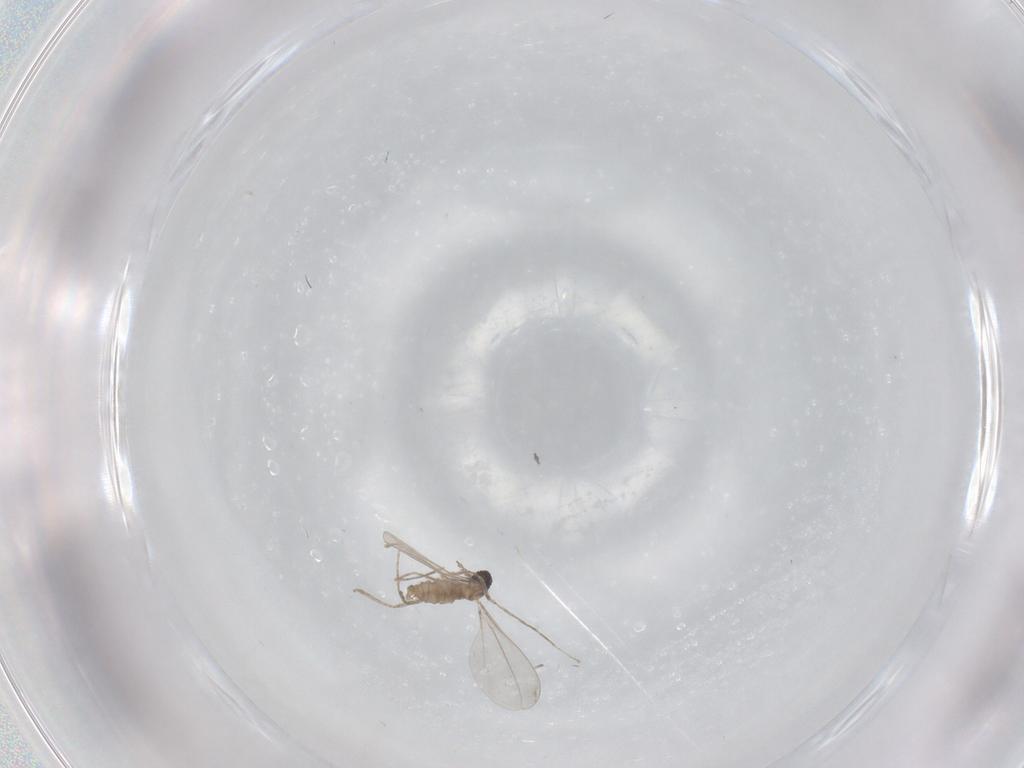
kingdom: Animalia
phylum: Arthropoda
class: Insecta
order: Diptera
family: Cecidomyiidae
